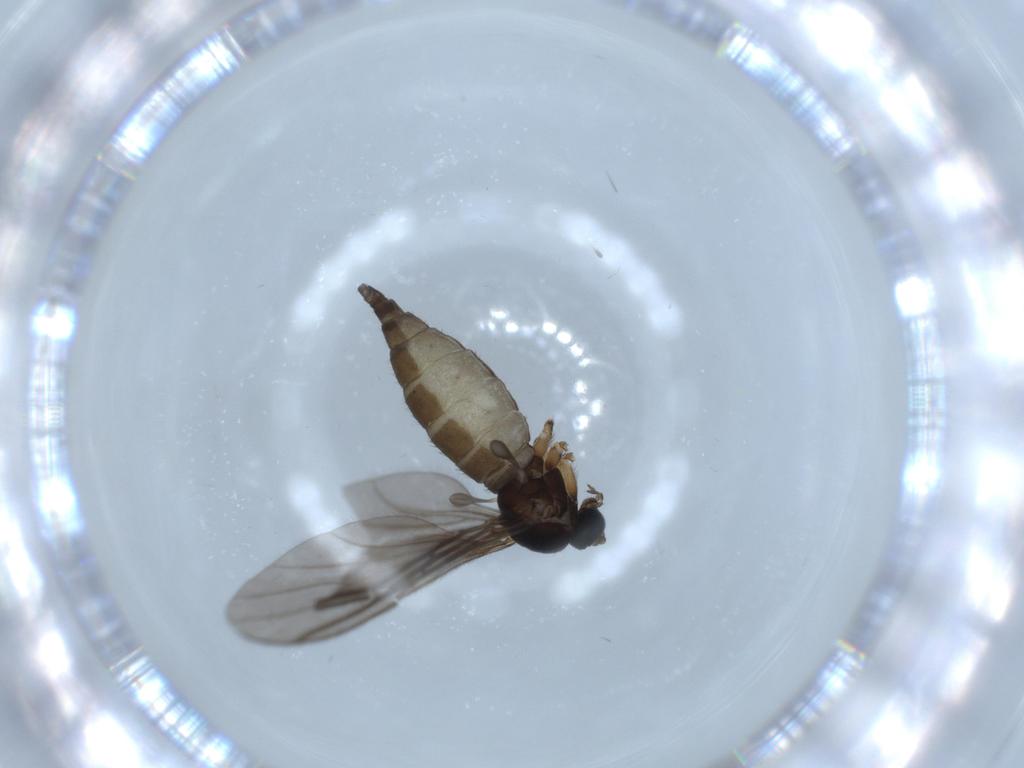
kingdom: Animalia
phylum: Arthropoda
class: Insecta
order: Diptera
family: Sciaridae
